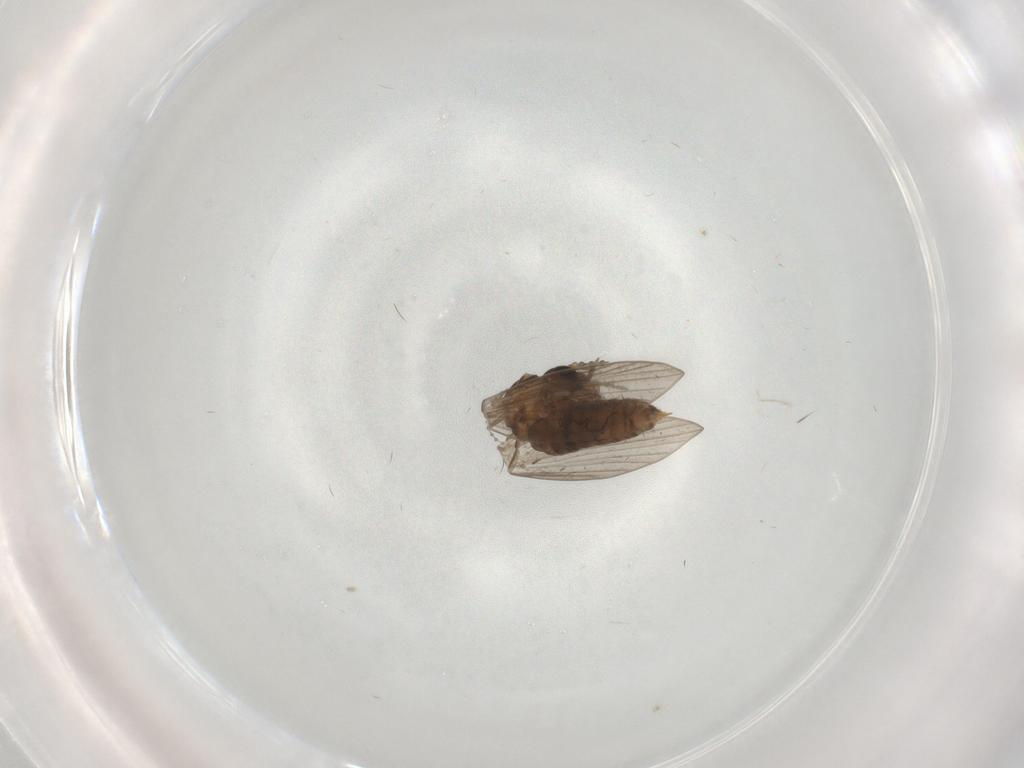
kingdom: Animalia
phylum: Arthropoda
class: Insecta
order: Diptera
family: Psychodidae
